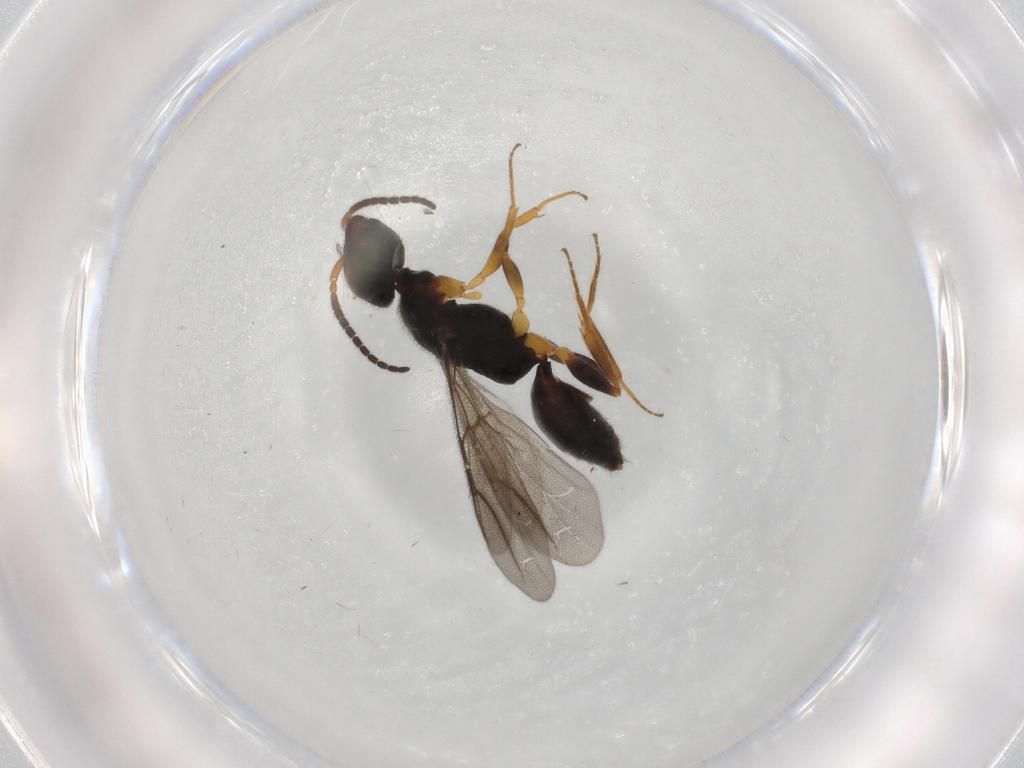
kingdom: Animalia
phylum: Arthropoda
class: Insecta
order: Hymenoptera
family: Bethylidae
